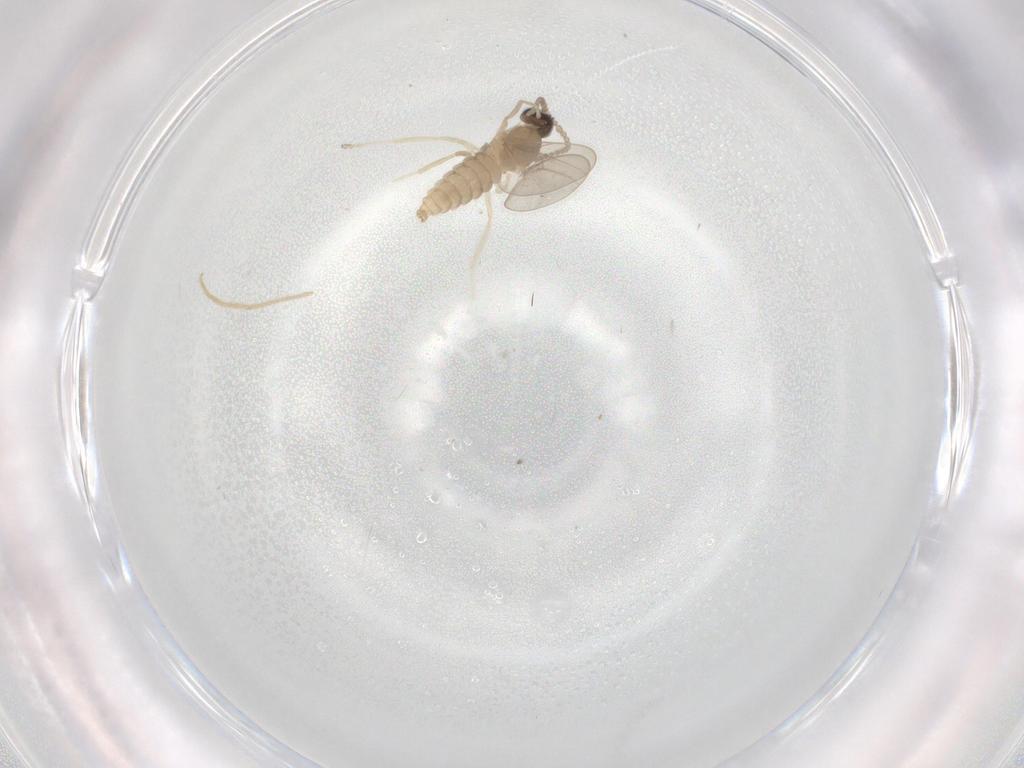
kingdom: Animalia
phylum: Arthropoda
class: Insecta
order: Diptera
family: Cecidomyiidae
